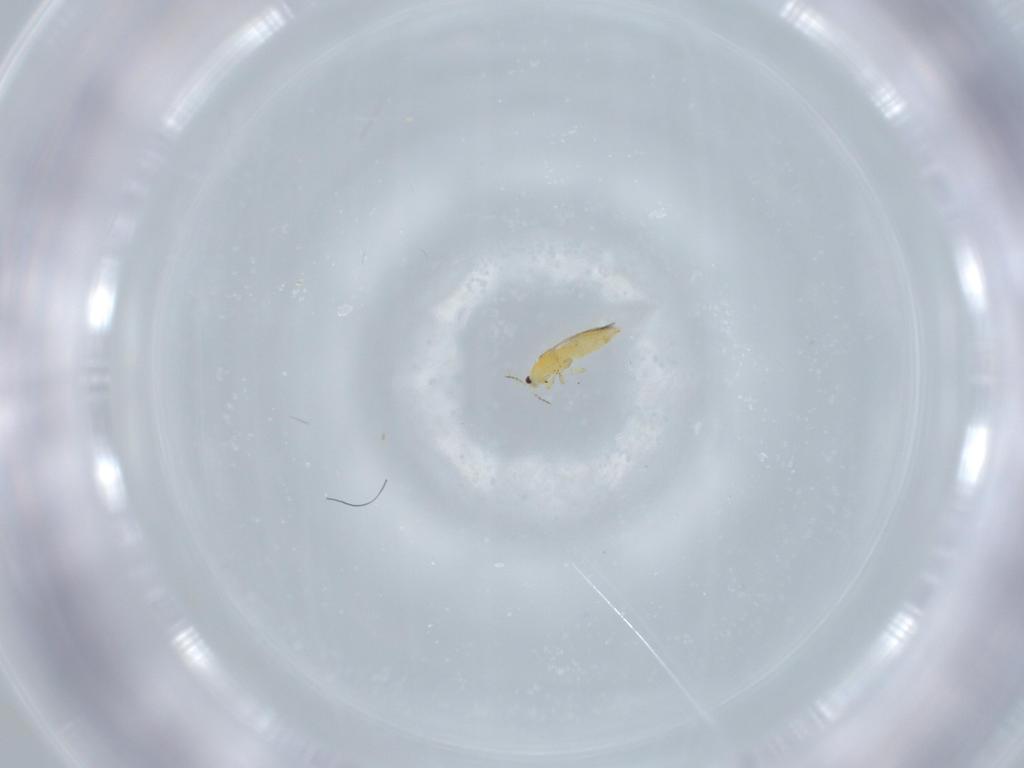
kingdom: Animalia
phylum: Arthropoda
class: Insecta
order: Thysanoptera
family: Thripidae
